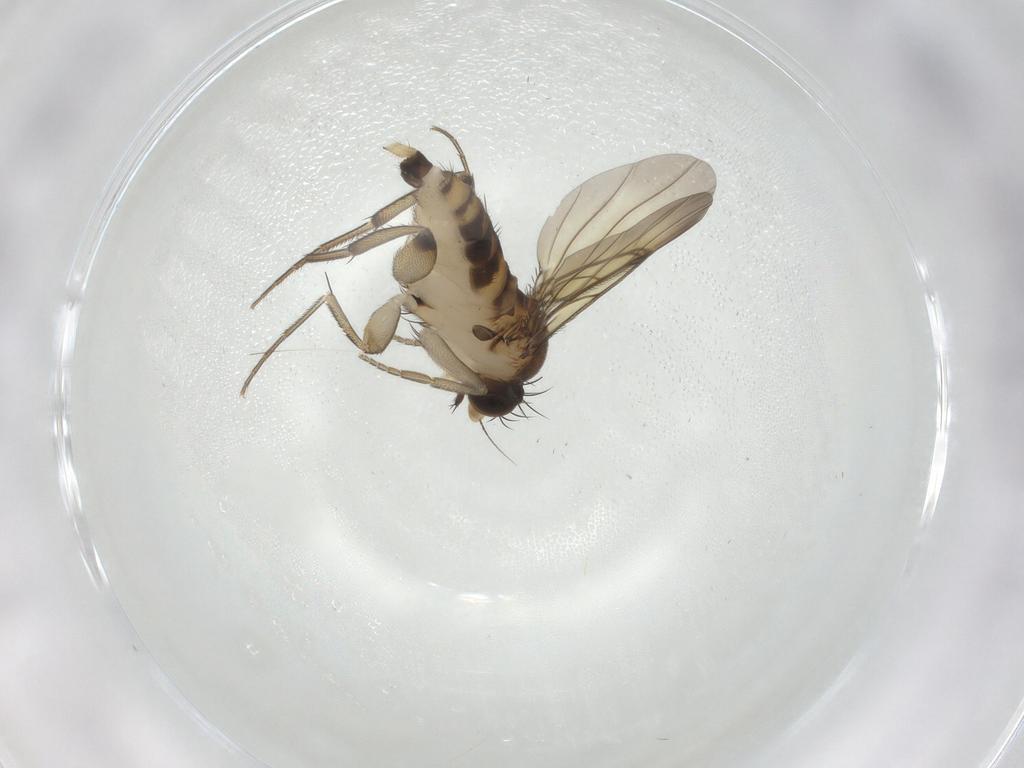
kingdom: Animalia
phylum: Arthropoda
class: Insecta
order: Diptera
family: Phoridae
